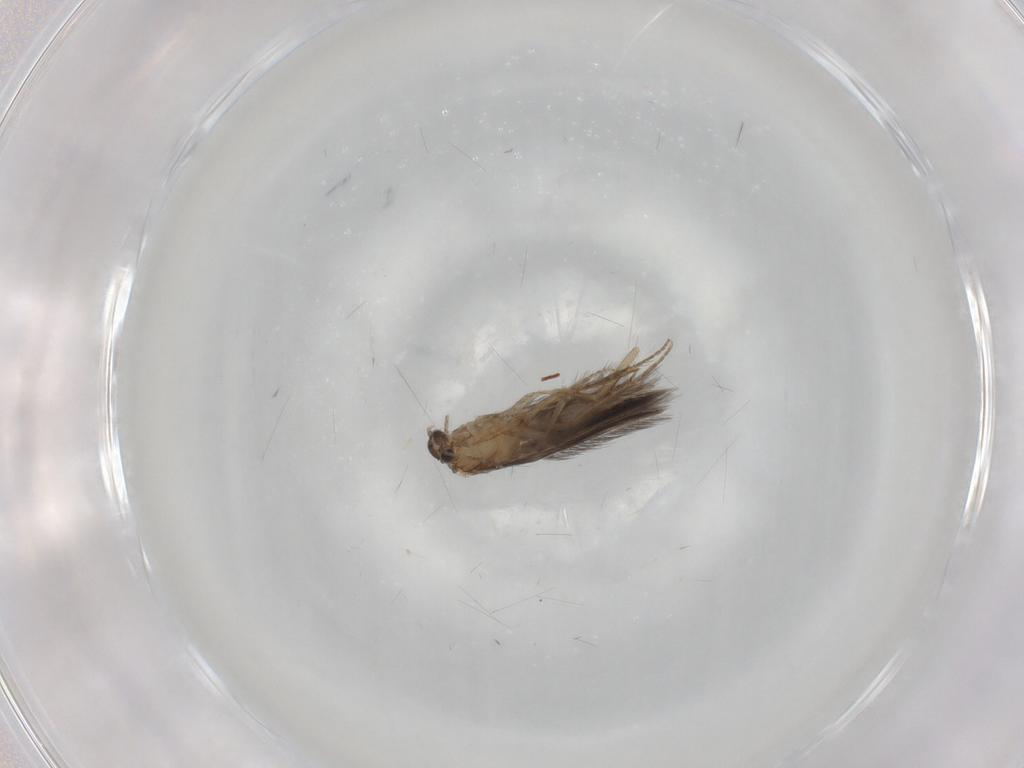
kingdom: Animalia
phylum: Arthropoda
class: Insecta
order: Trichoptera
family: Hydroptilidae
